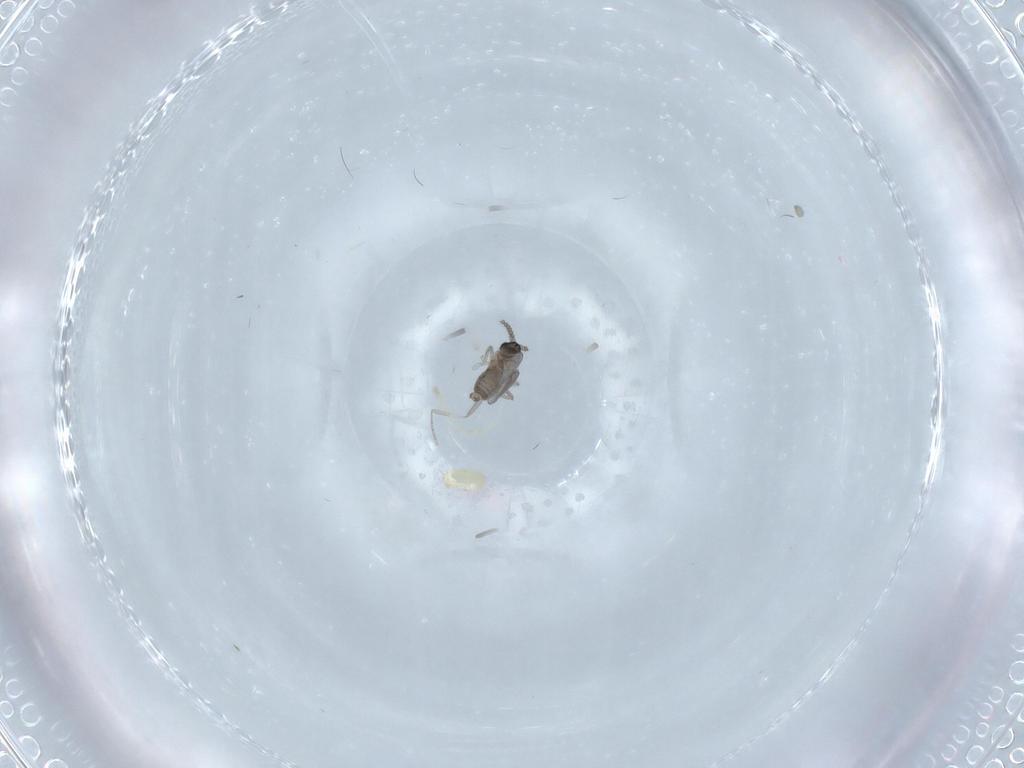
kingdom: Animalia
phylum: Arthropoda
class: Insecta
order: Diptera
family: Cecidomyiidae
